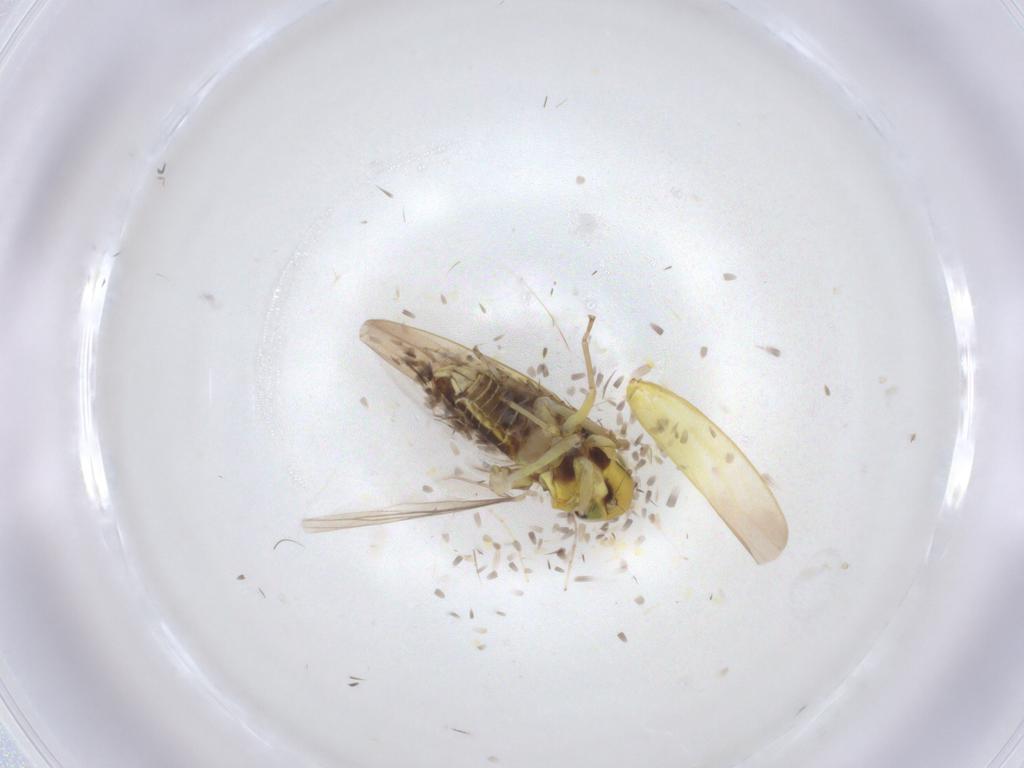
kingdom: Animalia
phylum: Arthropoda
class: Insecta
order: Hemiptera
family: Cicadellidae
